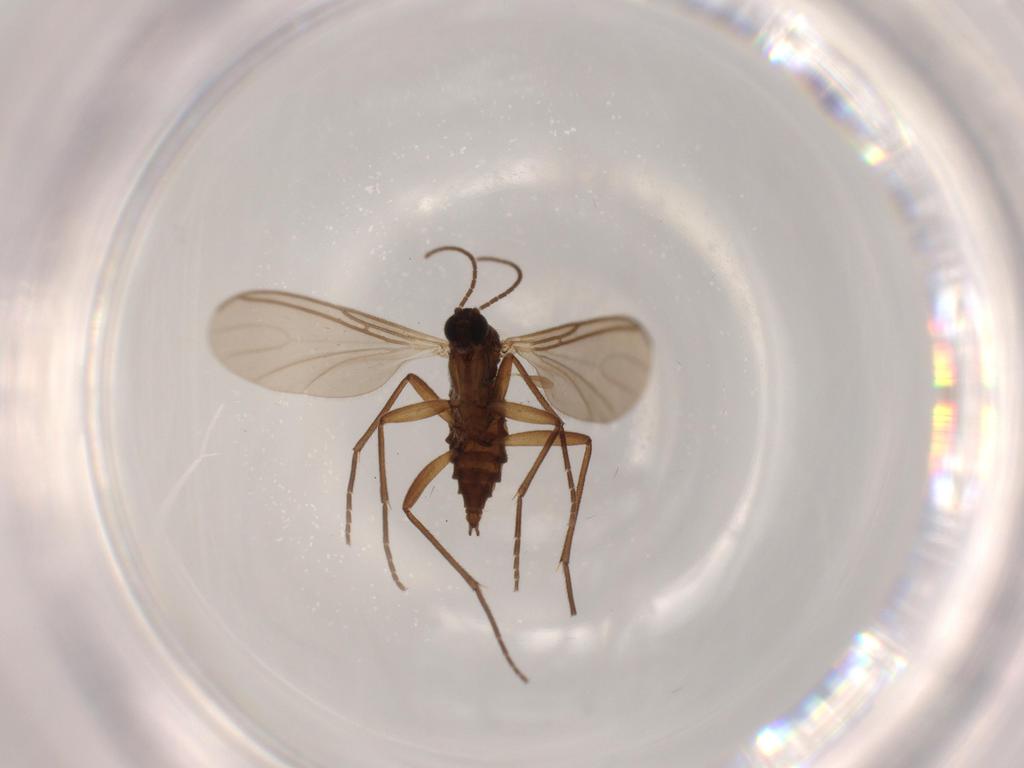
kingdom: Animalia
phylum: Arthropoda
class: Insecta
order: Diptera
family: Sciaridae
